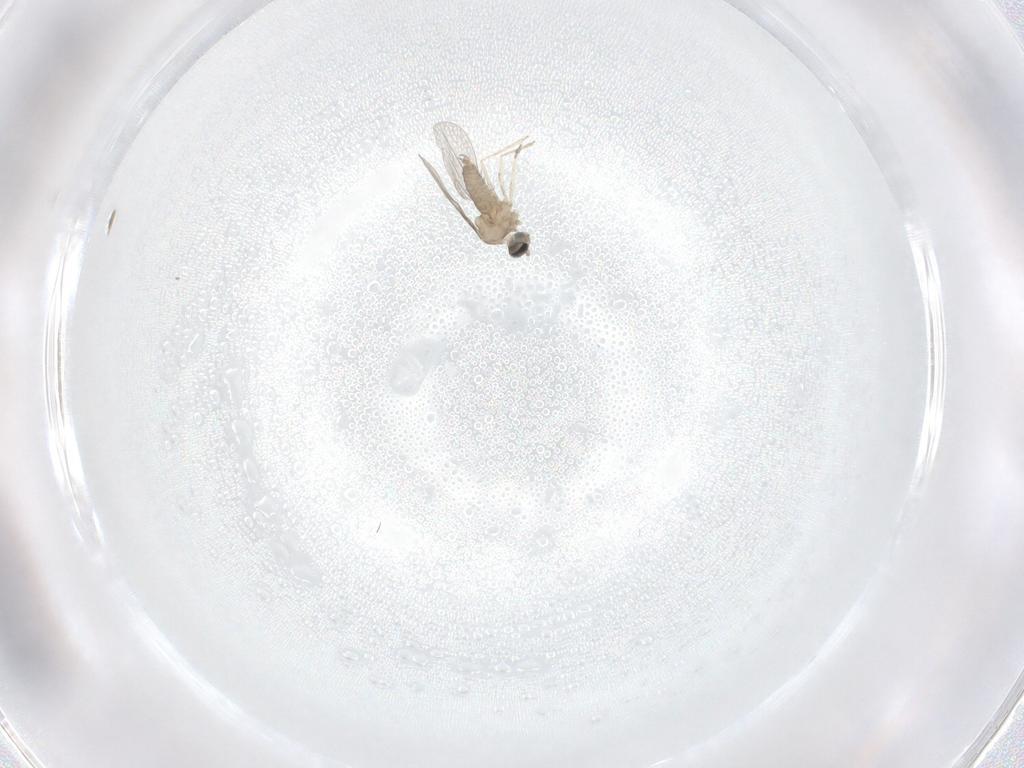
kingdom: Animalia
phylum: Arthropoda
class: Insecta
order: Diptera
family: Cecidomyiidae
